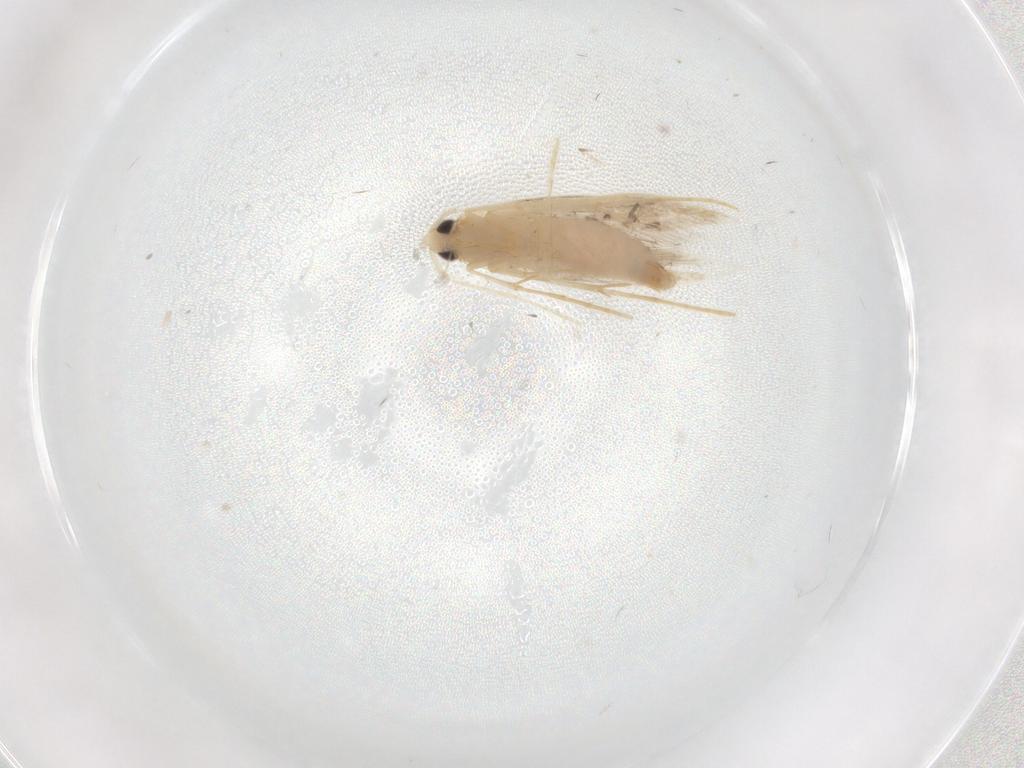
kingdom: Animalia
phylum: Arthropoda
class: Insecta
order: Lepidoptera
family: Tineidae
